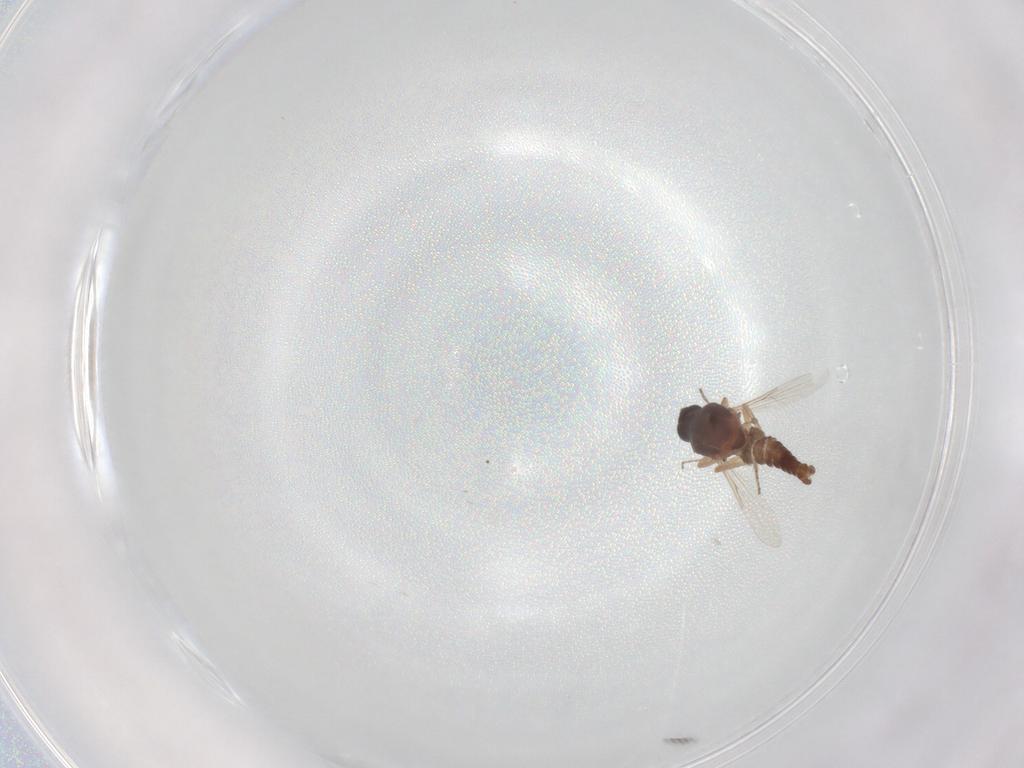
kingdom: Animalia
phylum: Arthropoda
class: Insecta
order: Diptera
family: Ceratopogonidae
